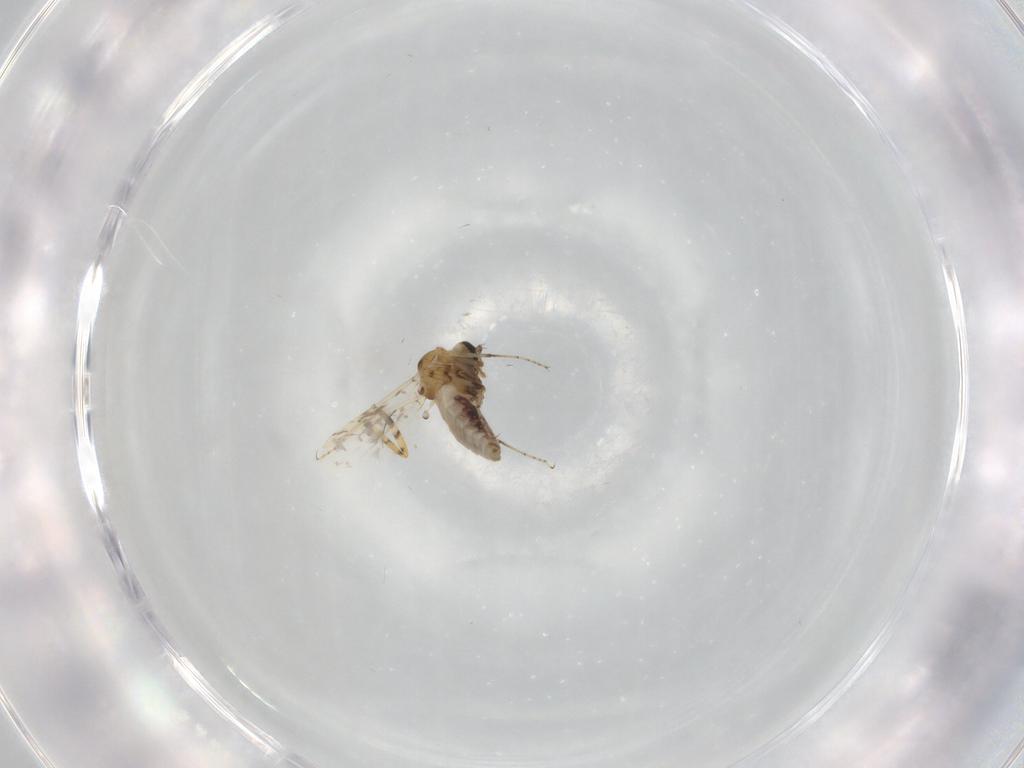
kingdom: Animalia
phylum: Arthropoda
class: Insecta
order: Diptera
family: Ceratopogonidae
